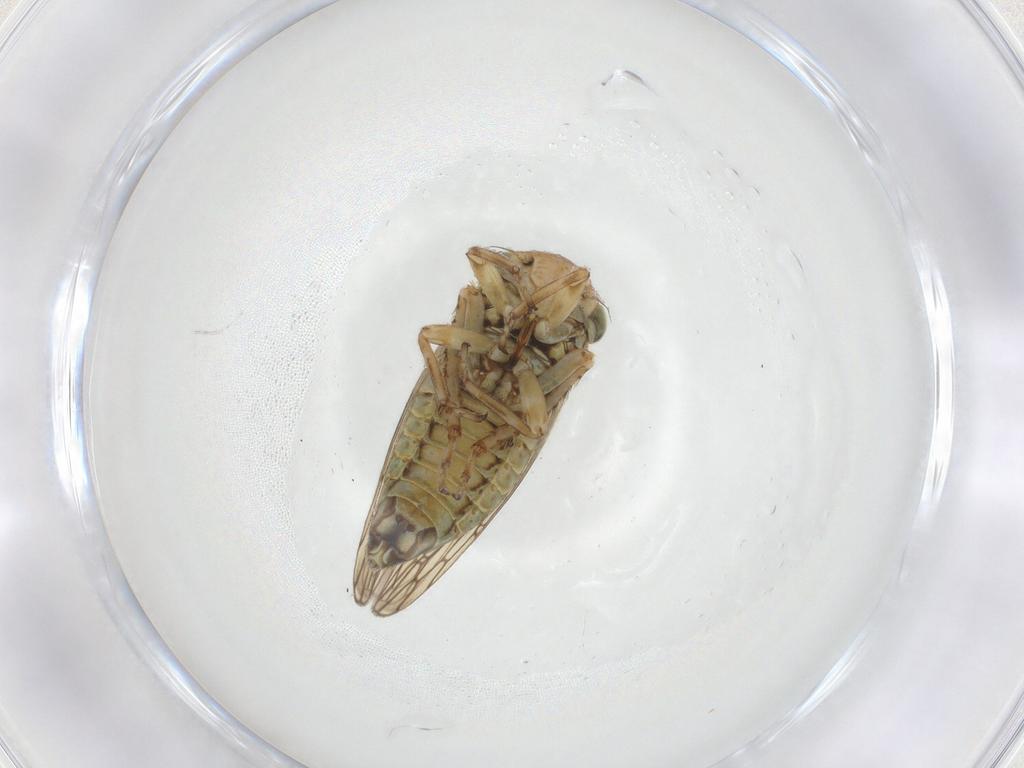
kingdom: Animalia
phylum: Arthropoda
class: Insecta
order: Hemiptera
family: Cicadellidae
